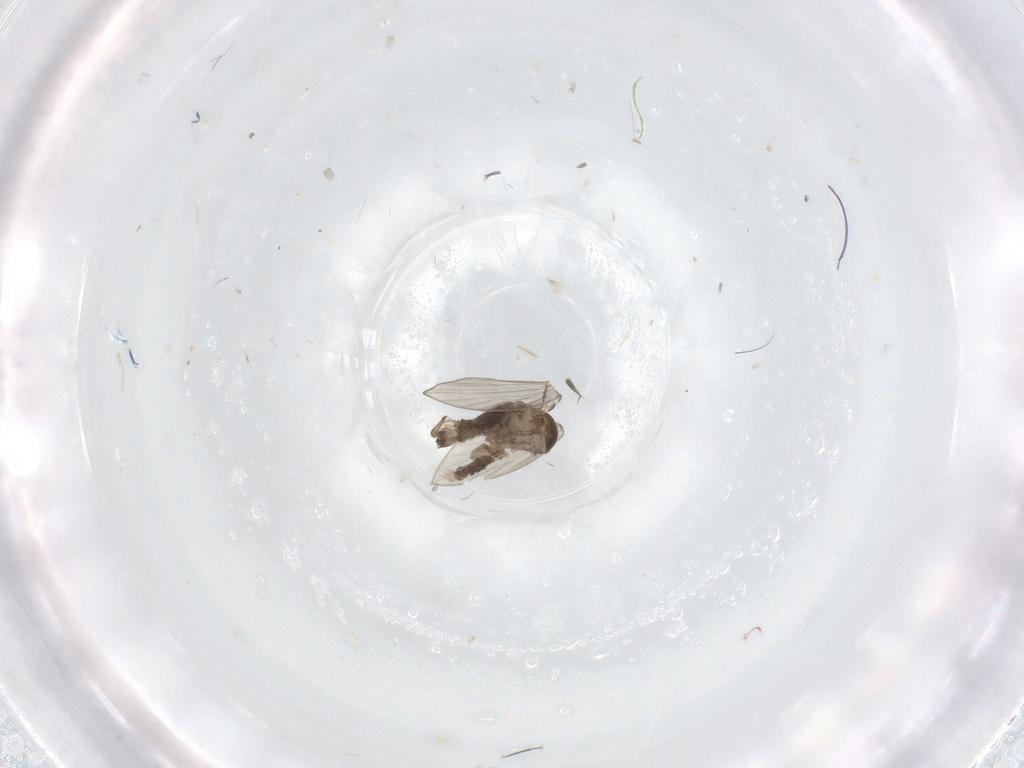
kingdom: Animalia
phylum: Arthropoda
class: Insecta
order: Diptera
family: Psychodidae
